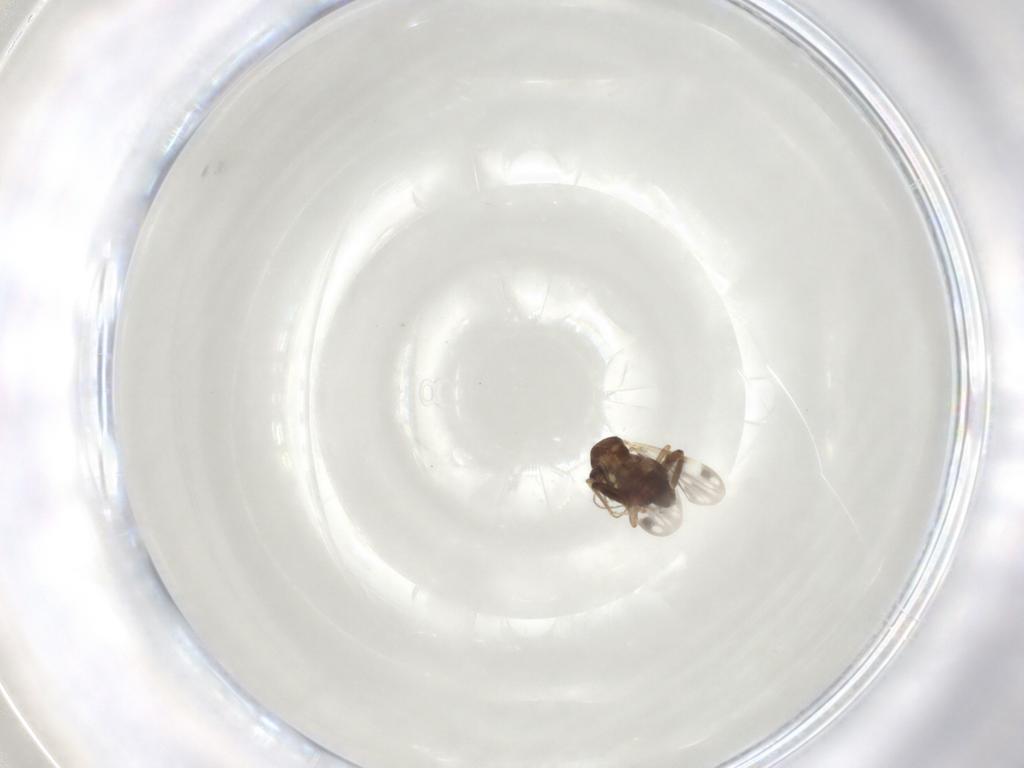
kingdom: Animalia
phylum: Arthropoda
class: Insecta
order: Diptera
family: Ceratopogonidae
